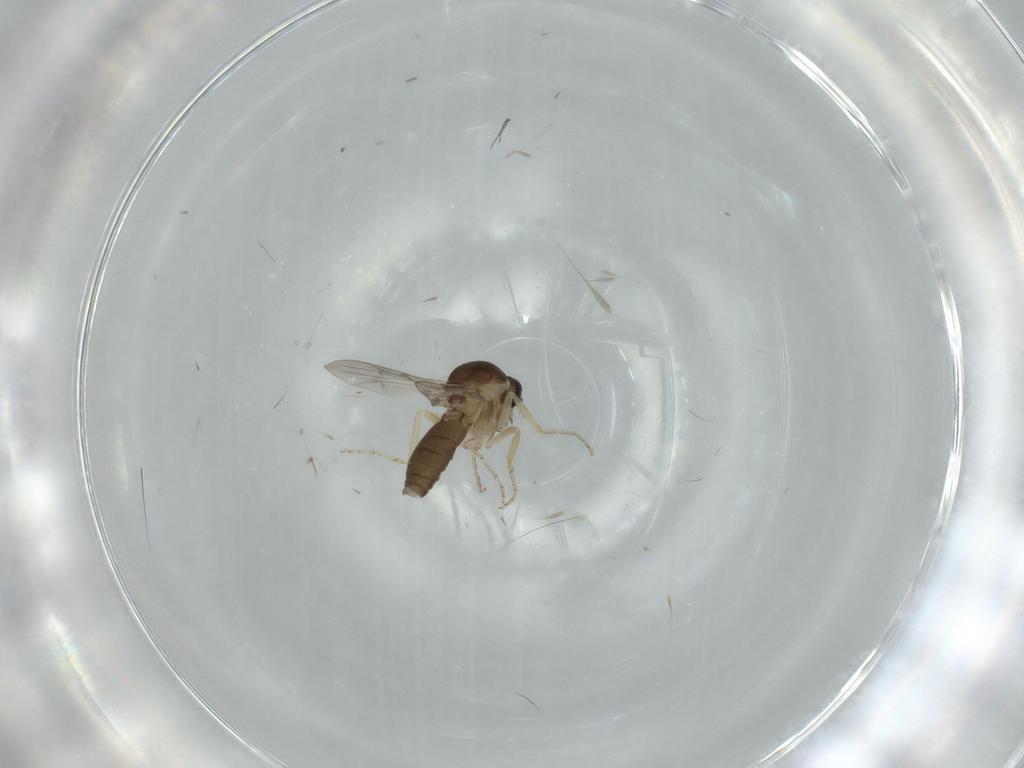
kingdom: Animalia
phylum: Arthropoda
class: Insecta
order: Diptera
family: Ceratopogonidae
